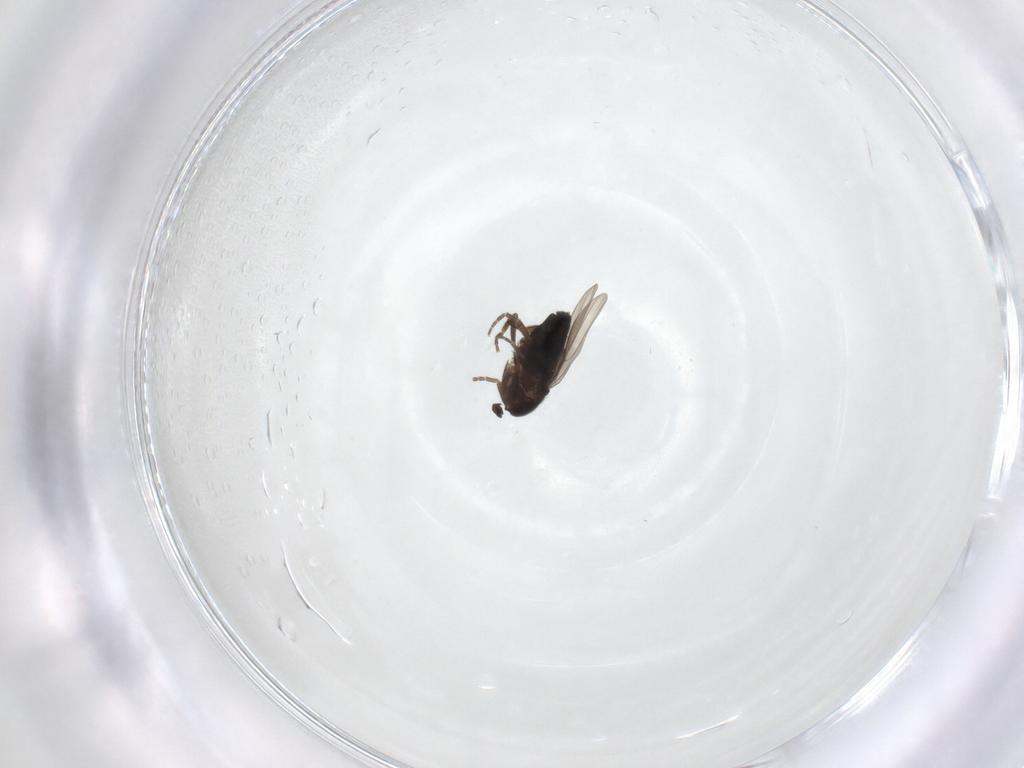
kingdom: Animalia
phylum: Arthropoda
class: Insecta
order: Diptera
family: Phoridae
